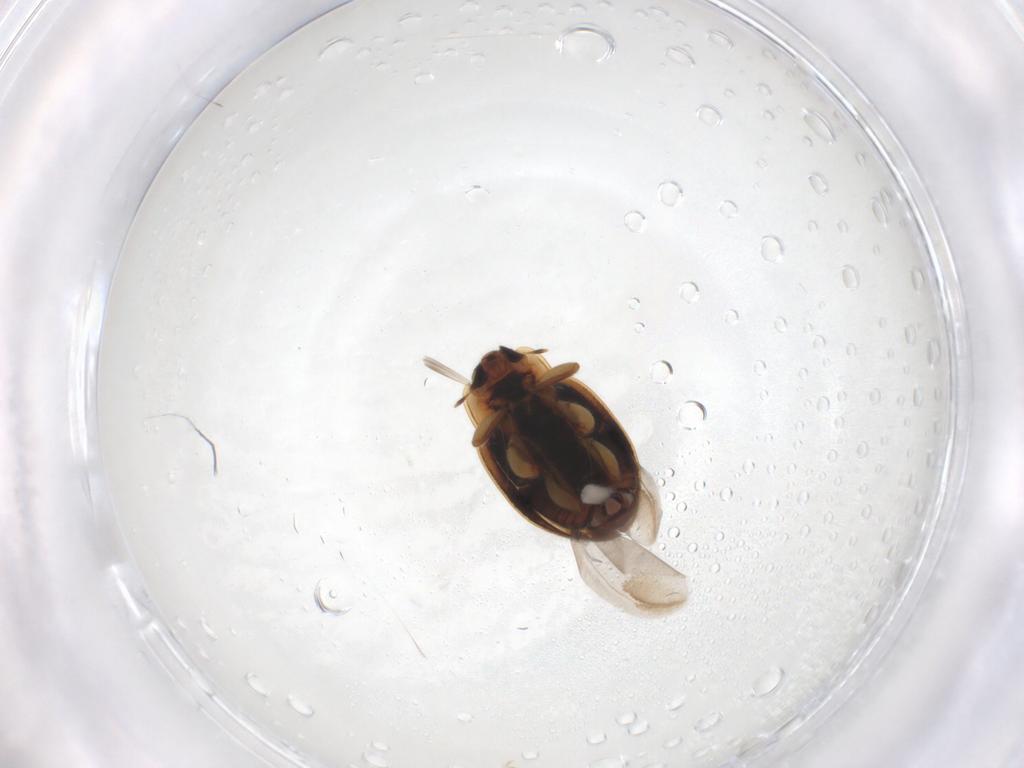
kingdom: Animalia
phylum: Arthropoda
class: Insecta
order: Coleoptera
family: Coccinellidae
